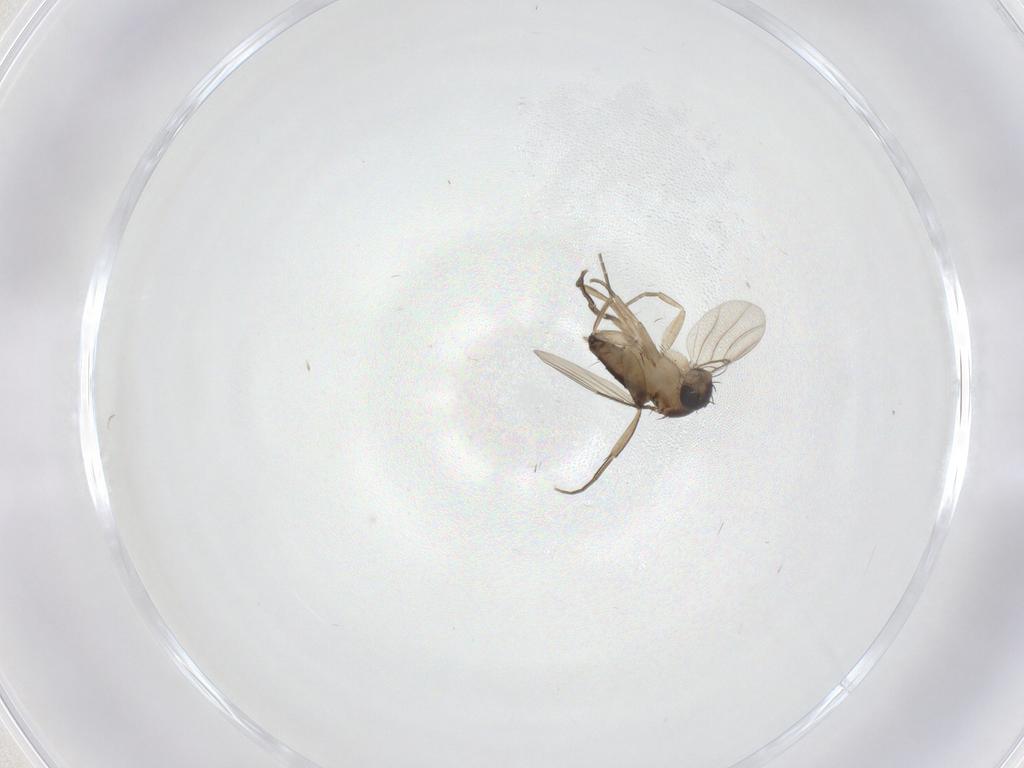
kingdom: Animalia
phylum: Arthropoda
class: Insecta
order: Diptera
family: Phoridae
